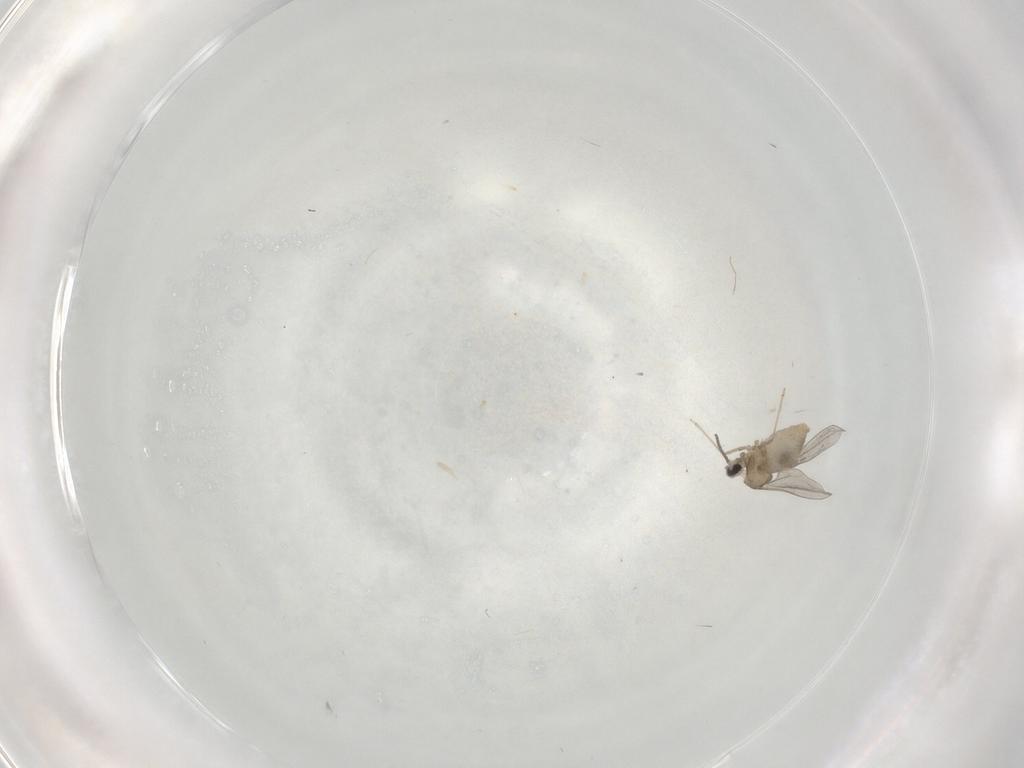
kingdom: Animalia
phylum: Arthropoda
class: Insecta
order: Diptera
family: Cecidomyiidae
